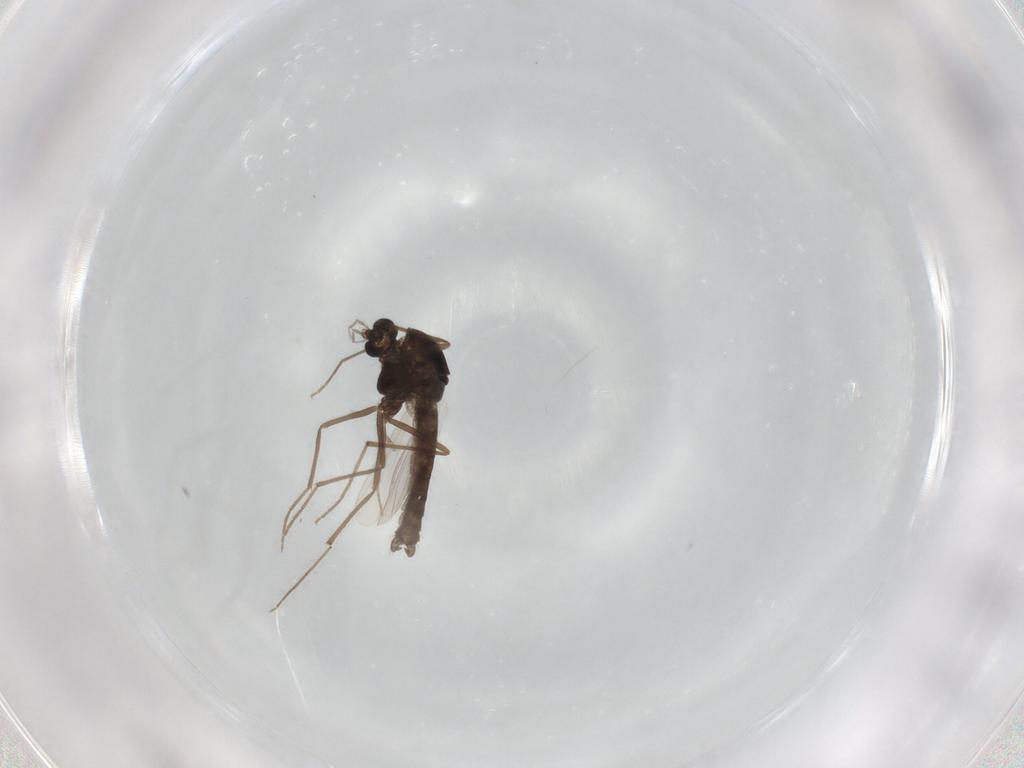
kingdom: Animalia
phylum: Arthropoda
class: Insecta
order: Diptera
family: Chironomidae
